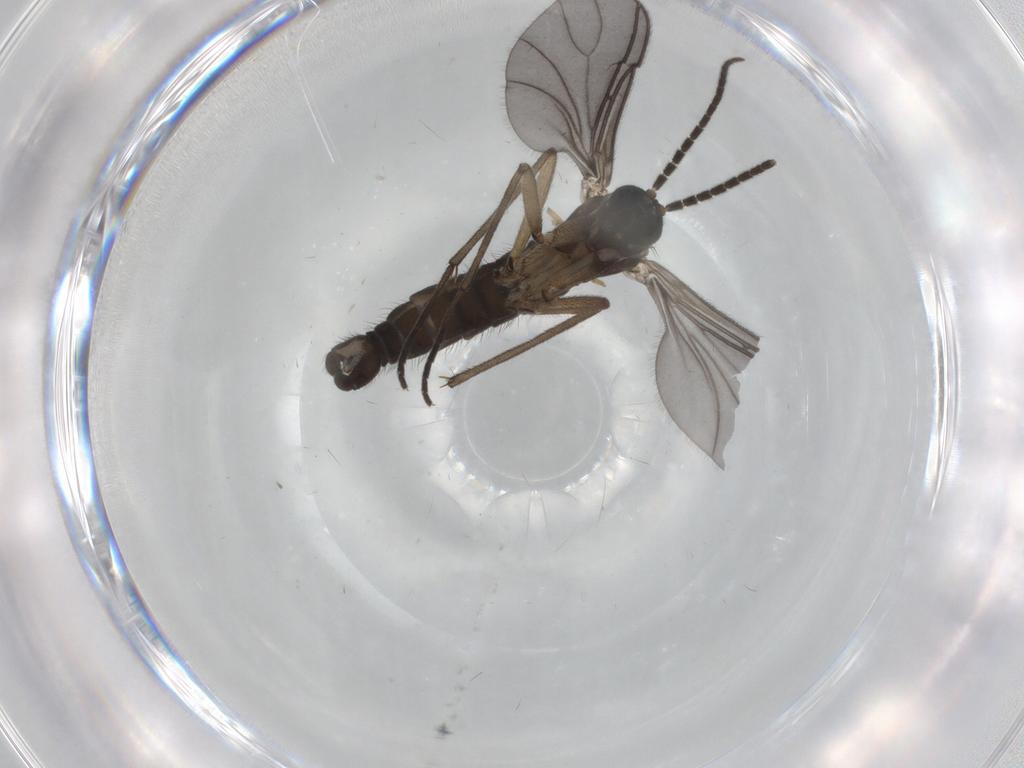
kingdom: Animalia
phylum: Arthropoda
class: Insecta
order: Diptera
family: Sciaridae
